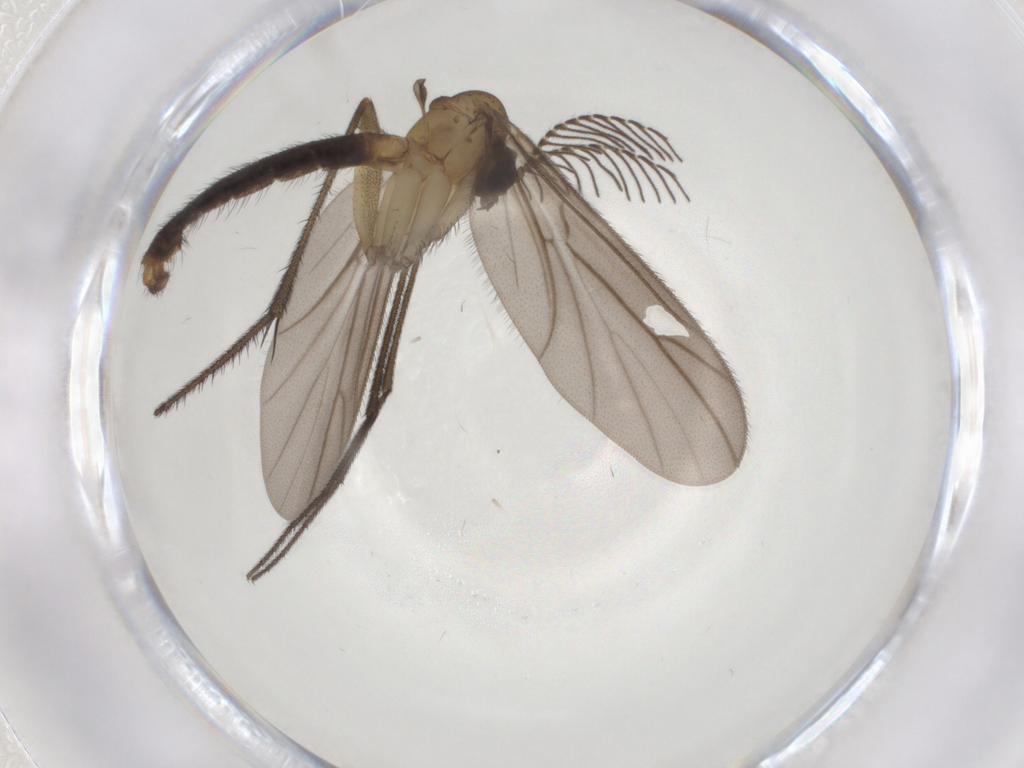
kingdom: Animalia
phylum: Arthropoda
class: Insecta
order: Diptera
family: Ditomyiidae
